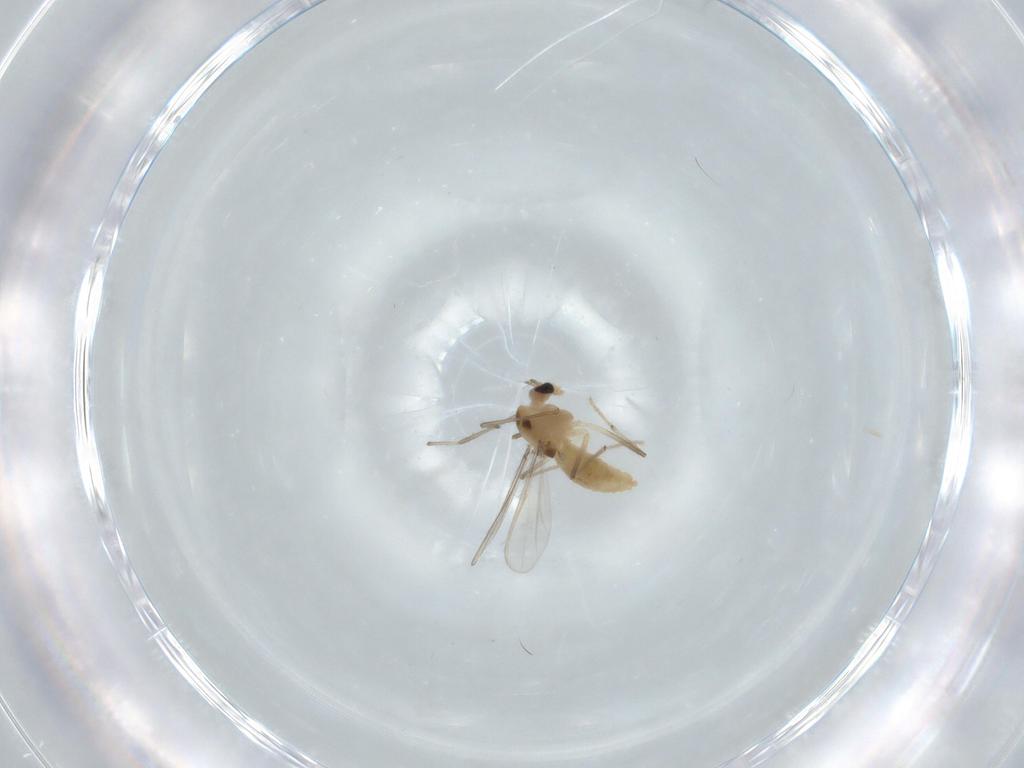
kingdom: Animalia
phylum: Arthropoda
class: Insecta
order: Diptera
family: Chironomidae
